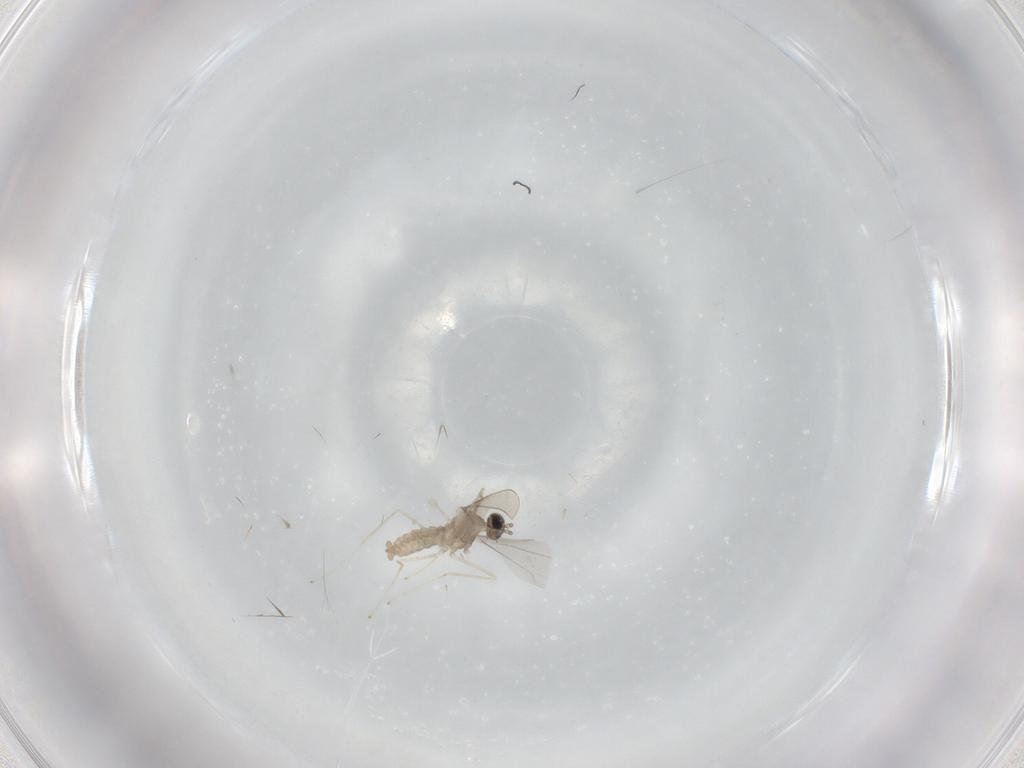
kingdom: Animalia
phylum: Arthropoda
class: Insecta
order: Diptera
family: Cecidomyiidae
